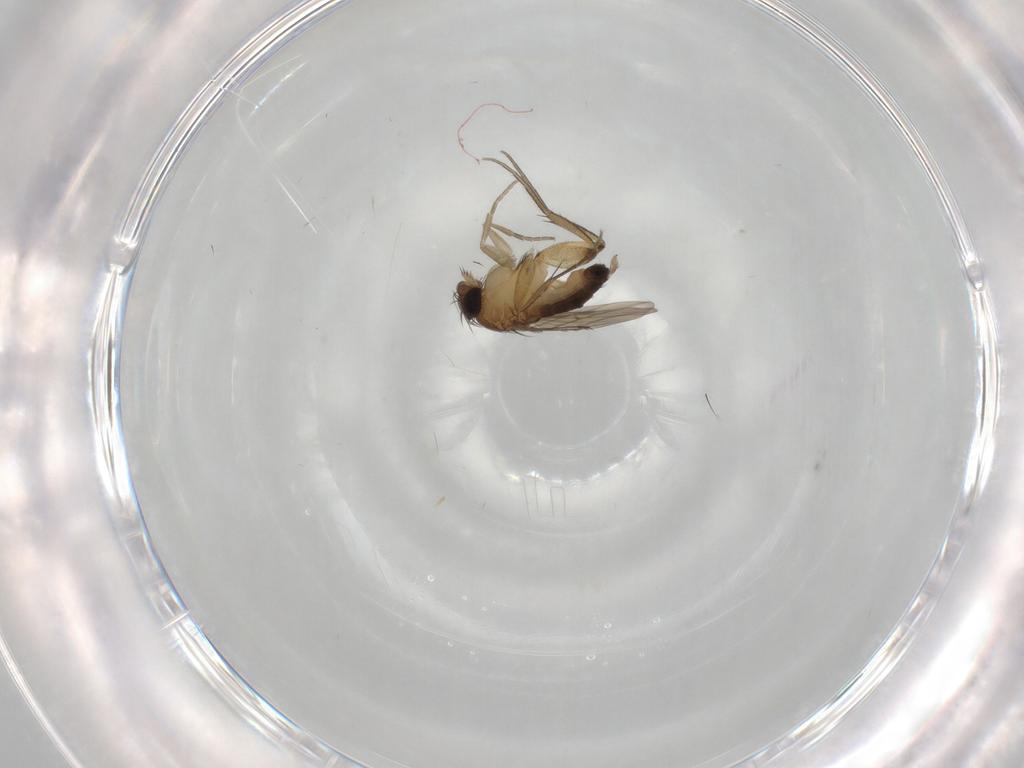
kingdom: Animalia
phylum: Arthropoda
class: Insecta
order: Diptera
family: Phoridae
